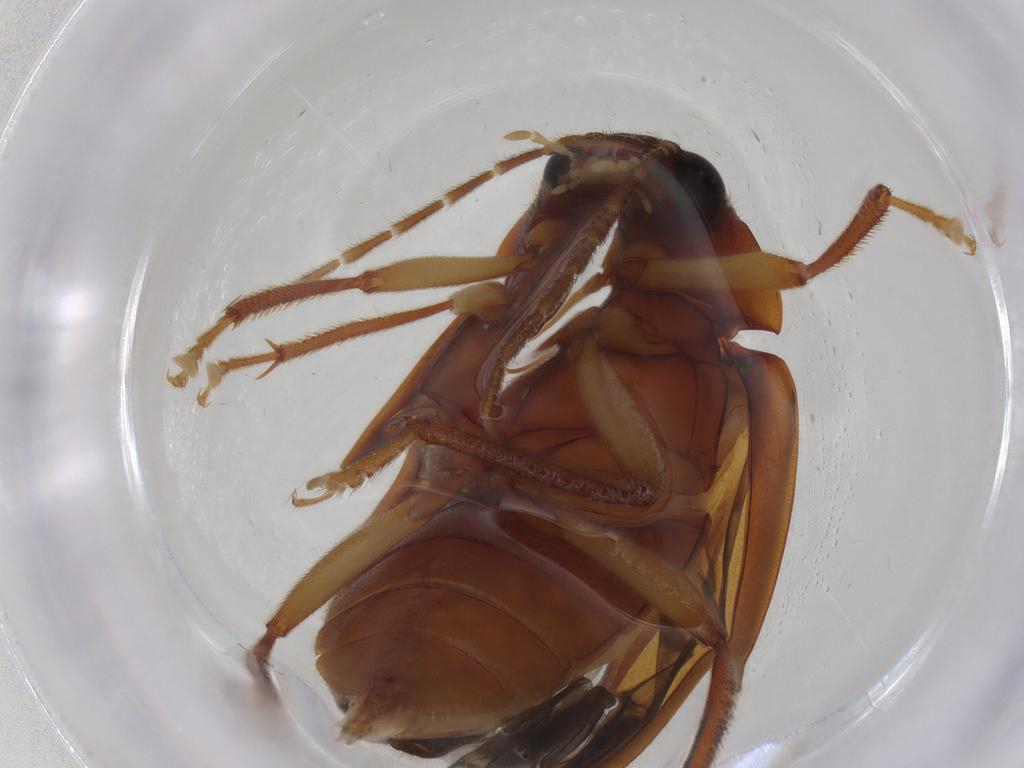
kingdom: Animalia
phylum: Arthropoda
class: Insecta
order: Coleoptera
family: Ptilodactylidae
